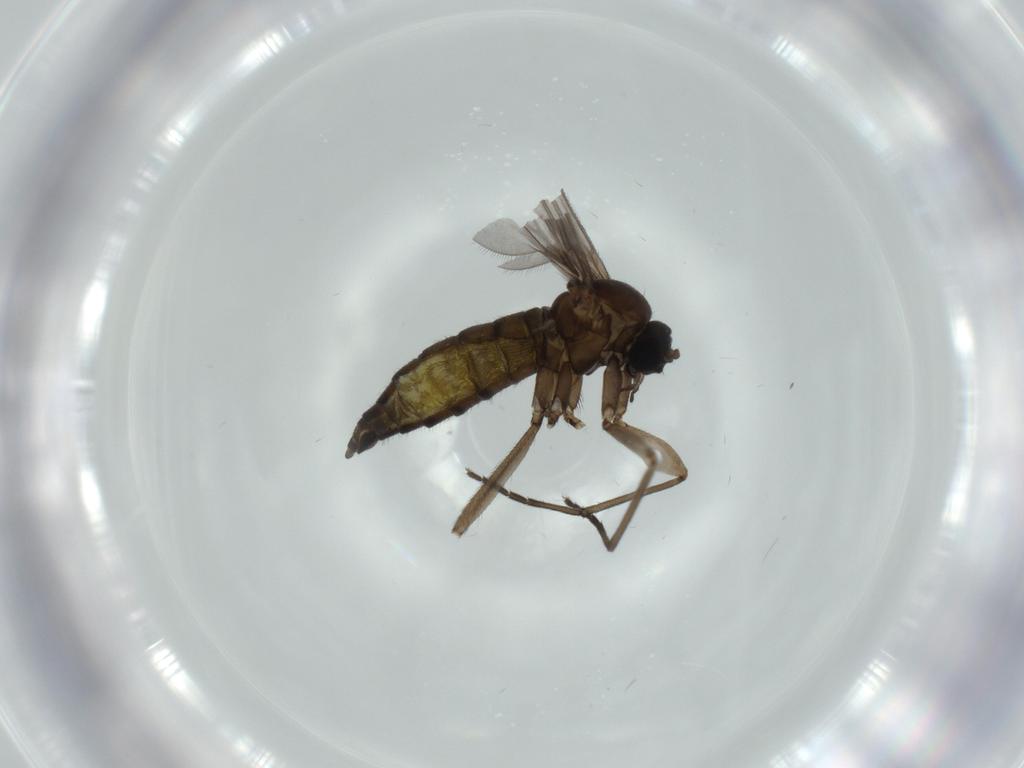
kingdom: Animalia
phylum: Arthropoda
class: Insecta
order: Diptera
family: Sciaridae
